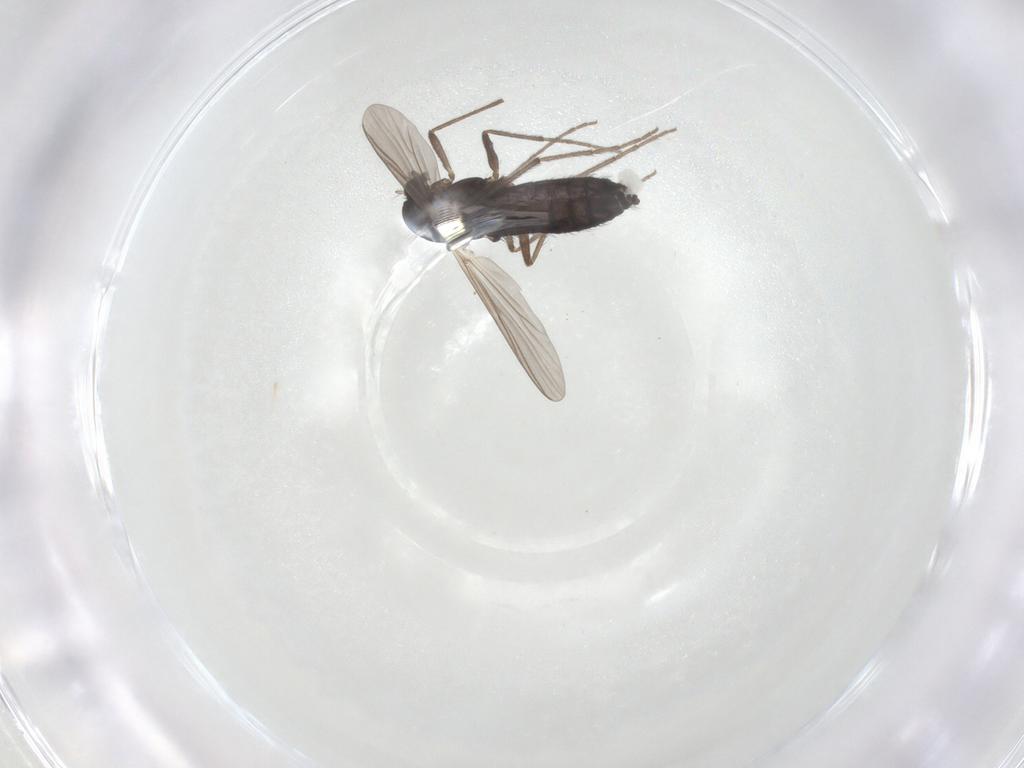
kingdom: Animalia
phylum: Arthropoda
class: Insecta
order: Diptera
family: Chironomidae
